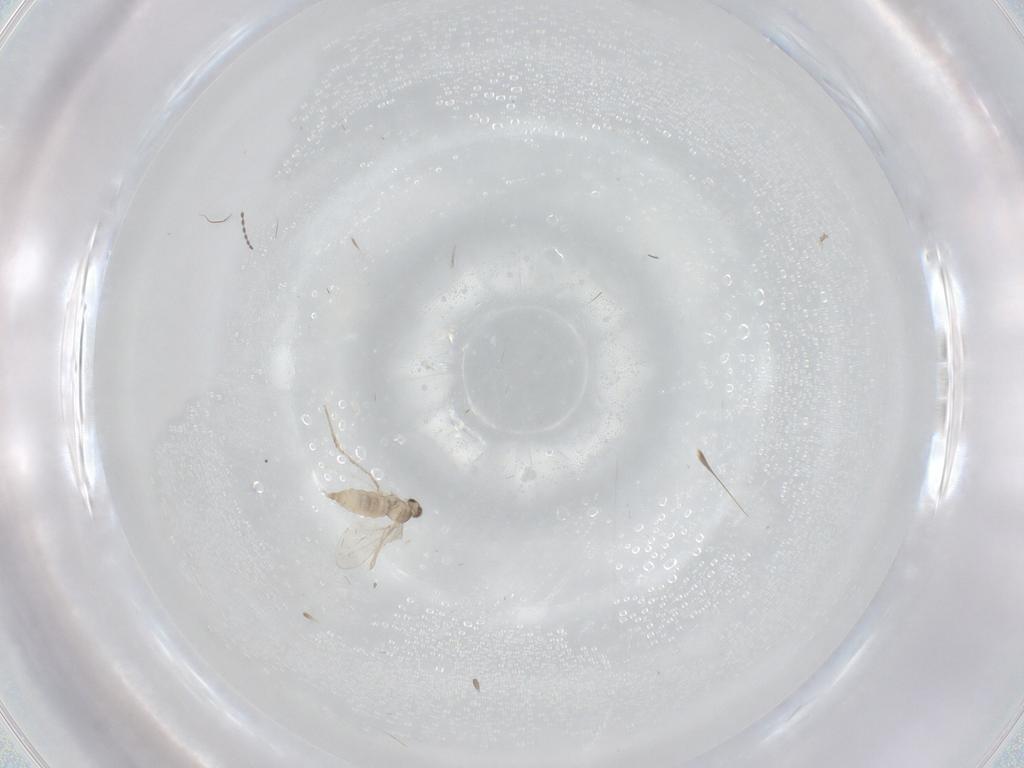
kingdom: Animalia
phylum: Arthropoda
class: Insecta
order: Diptera
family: Cecidomyiidae
